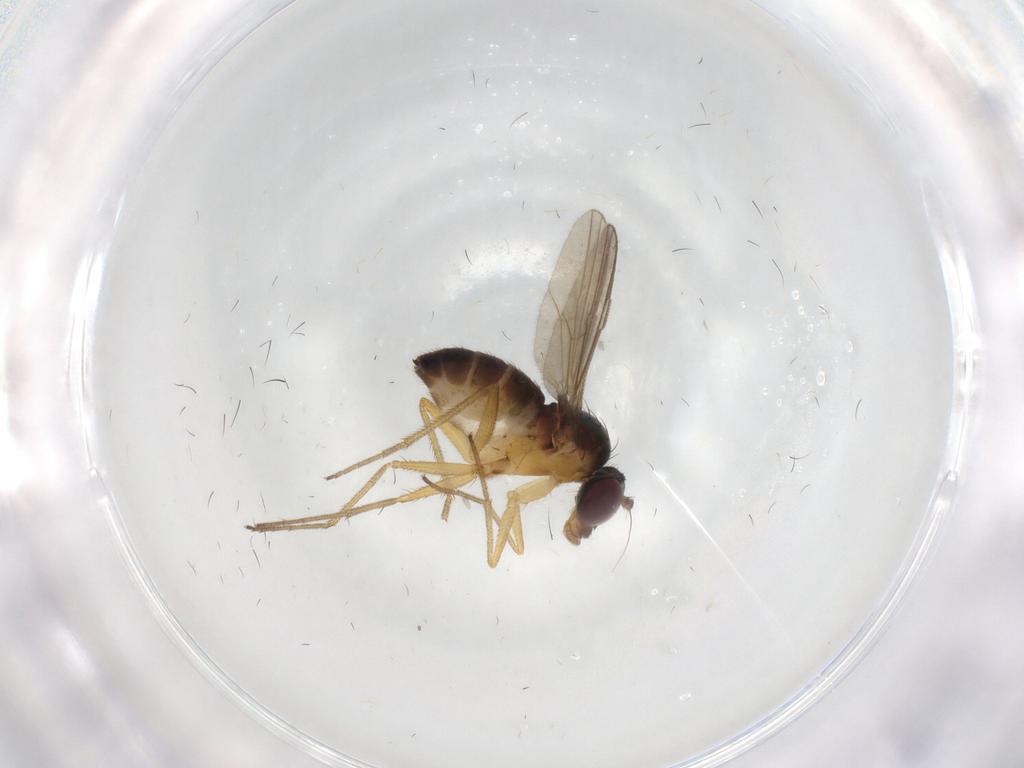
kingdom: Animalia
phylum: Arthropoda
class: Insecta
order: Diptera
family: Dolichopodidae
